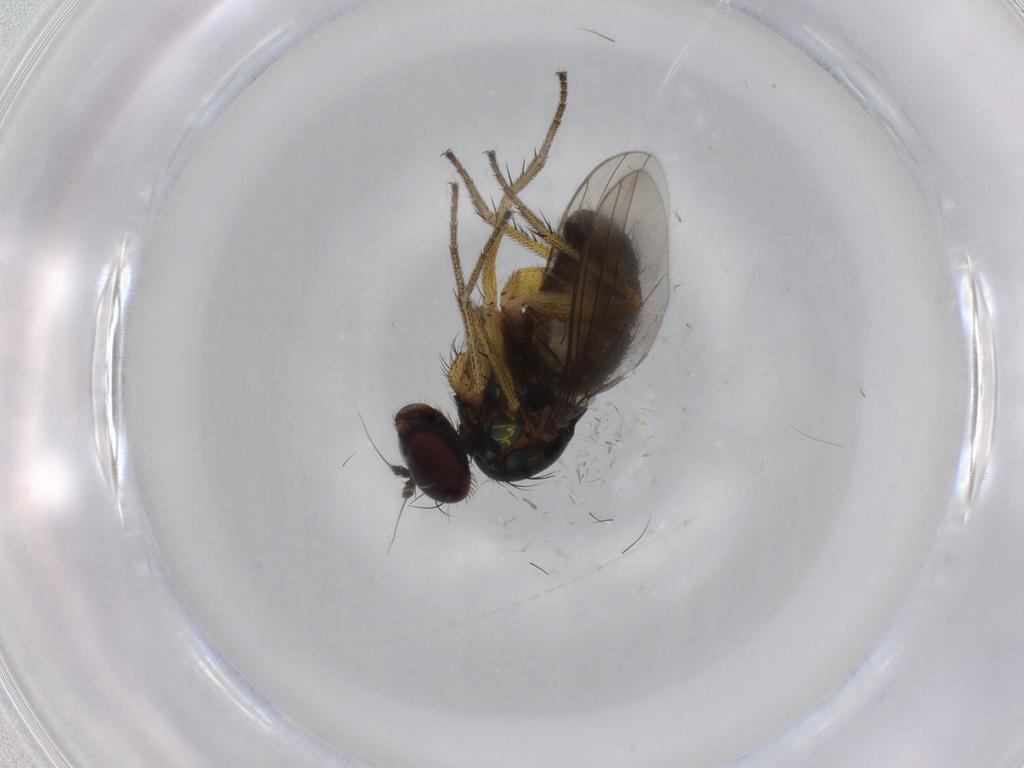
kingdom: Animalia
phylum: Arthropoda
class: Insecta
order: Diptera
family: Dolichopodidae
